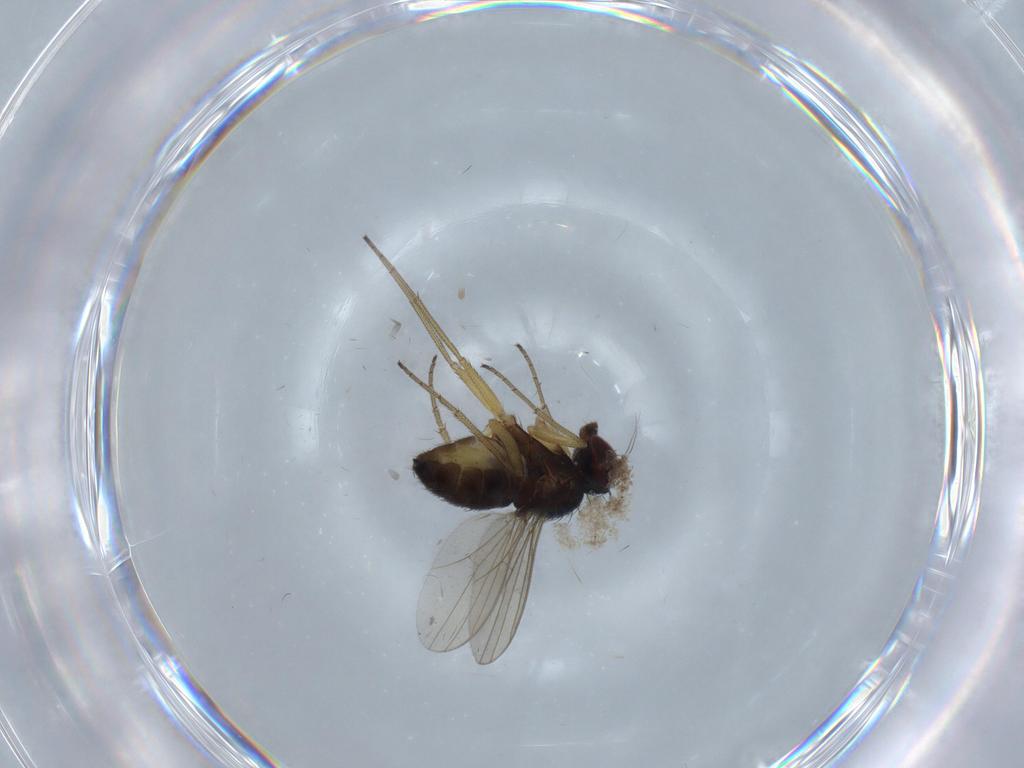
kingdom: Animalia
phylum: Arthropoda
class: Insecta
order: Diptera
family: Dolichopodidae
